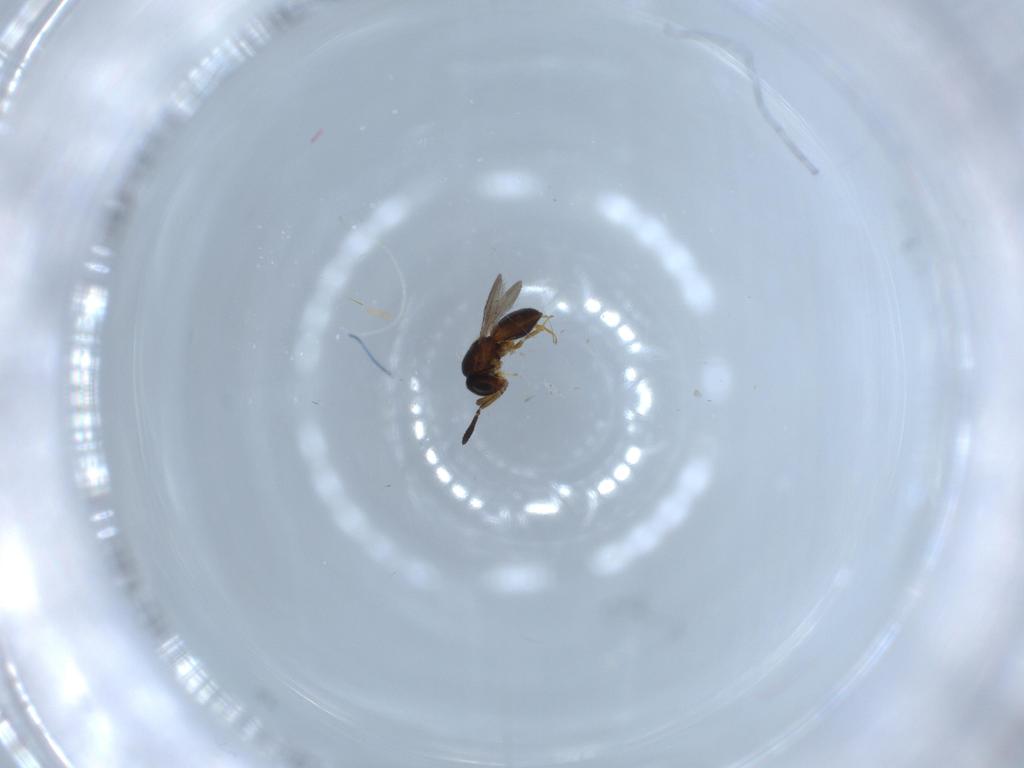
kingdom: Animalia
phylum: Arthropoda
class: Insecta
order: Hymenoptera
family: Scelionidae
